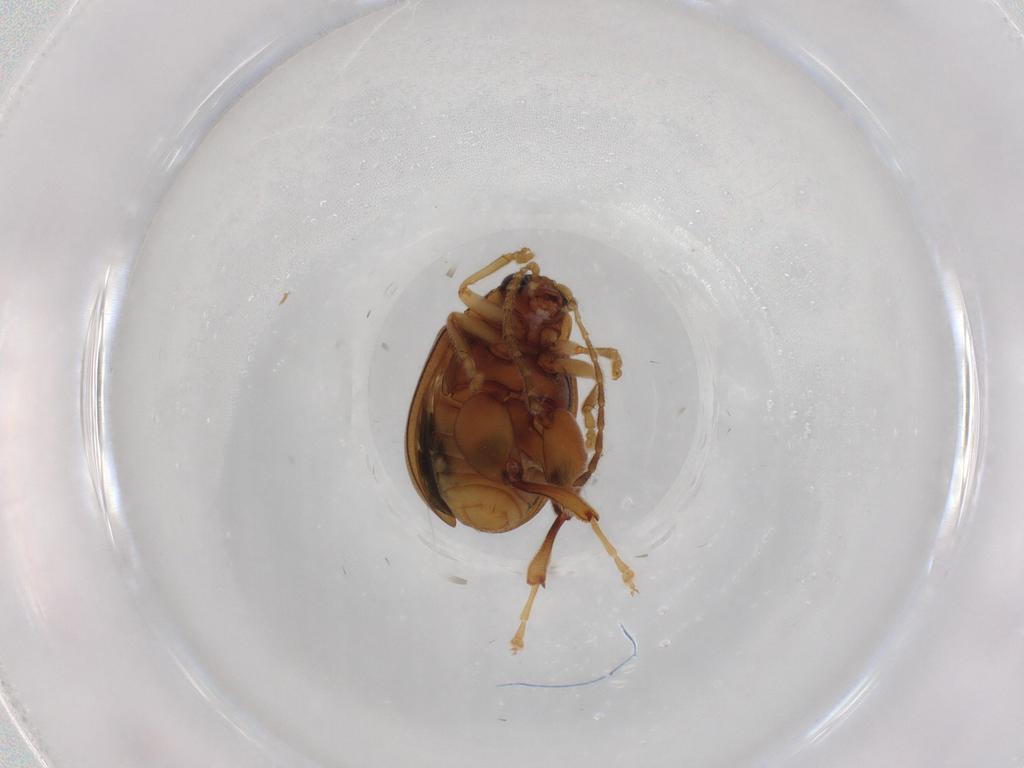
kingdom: Animalia
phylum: Arthropoda
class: Insecta
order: Coleoptera
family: Chrysomelidae
